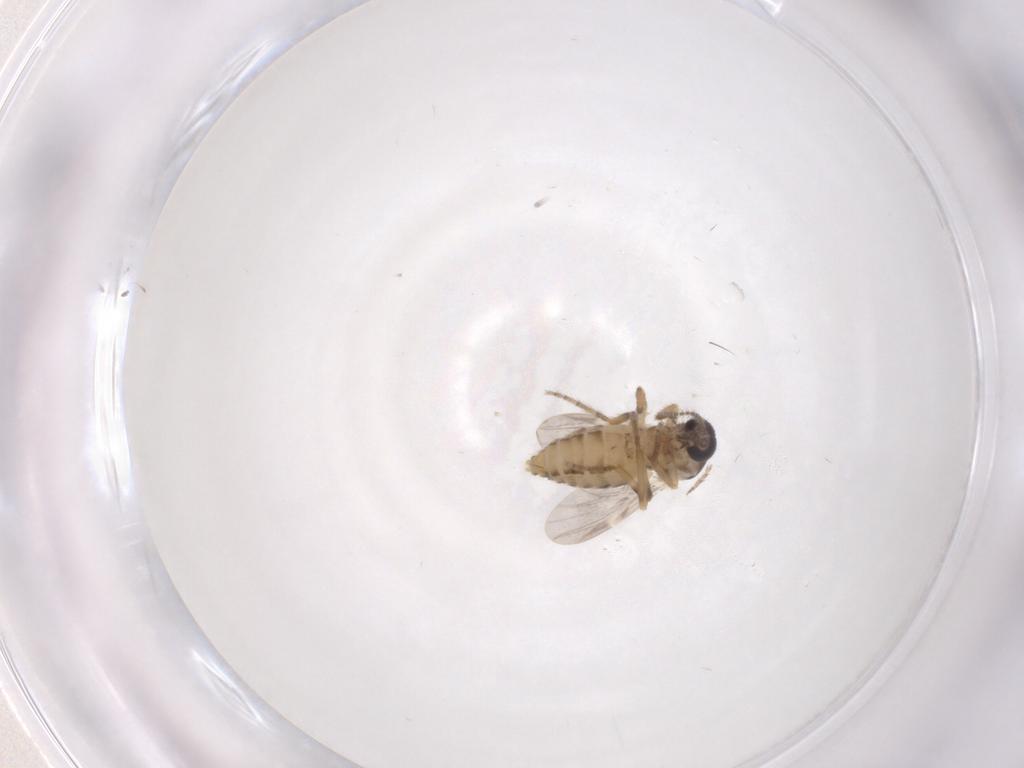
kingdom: Animalia
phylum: Arthropoda
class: Insecta
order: Diptera
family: Ceratopogonidae
